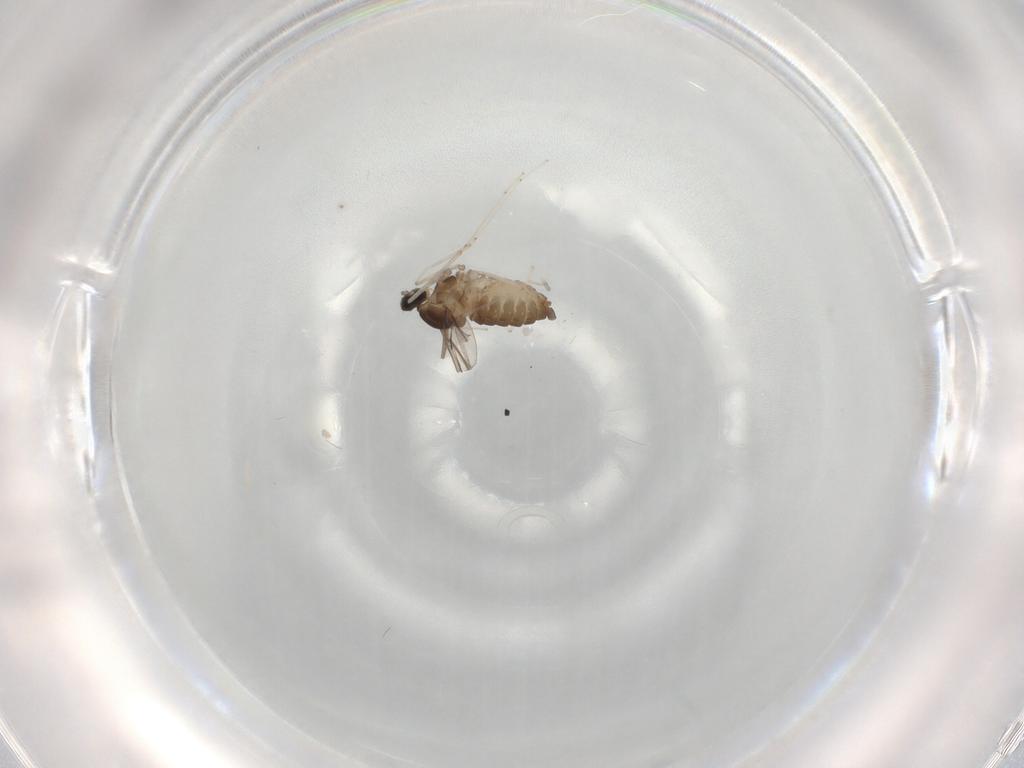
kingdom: Animalia
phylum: Arthropoda
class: Insecta
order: Diptera
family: Cecidomyiidae
